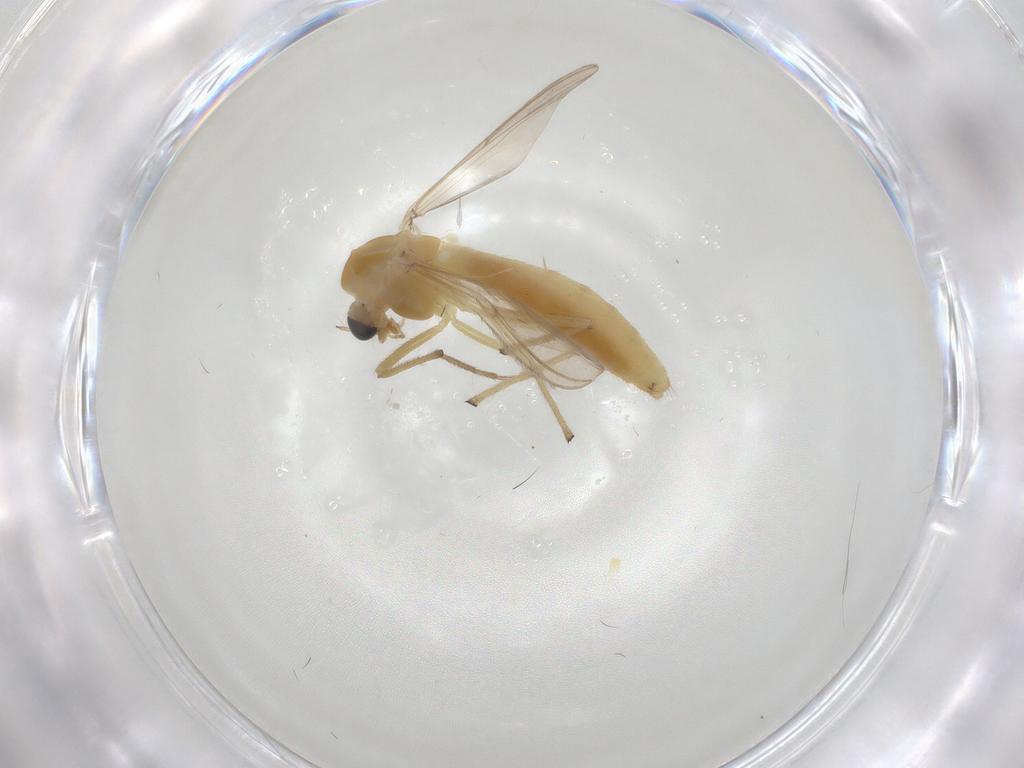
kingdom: Animalia
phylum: Arthropoda
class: Insecta
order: Diptera
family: Chironomidae
